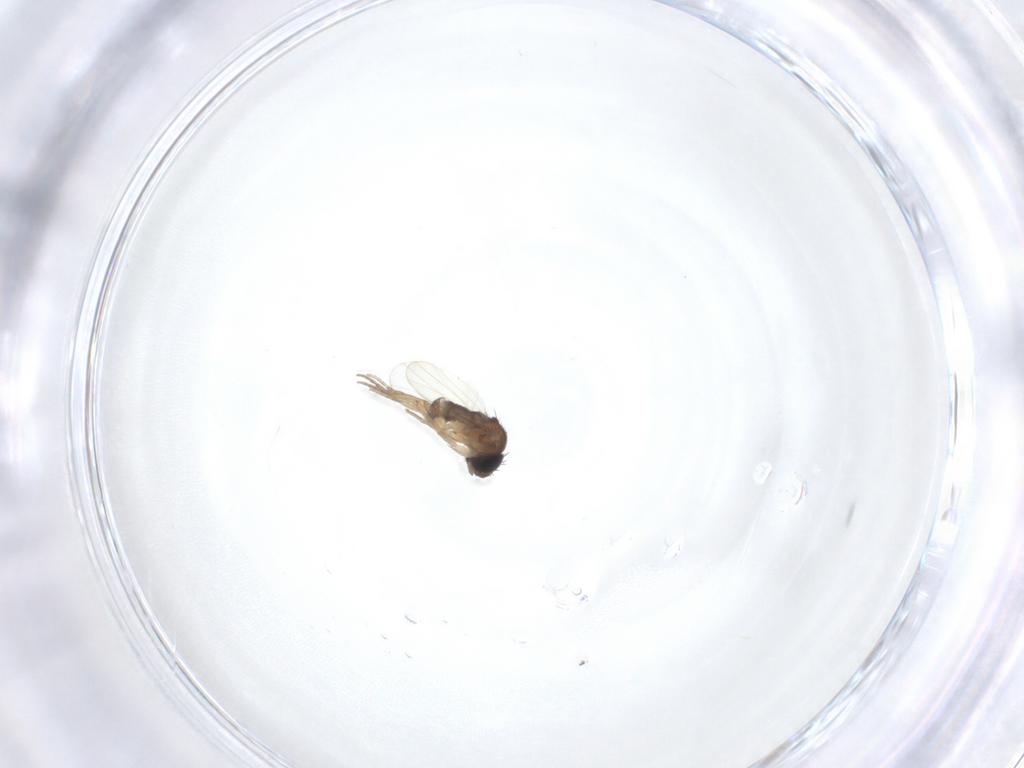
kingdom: Animalia
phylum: Arthropoda
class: Insecta
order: Diptera
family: Phoridae
